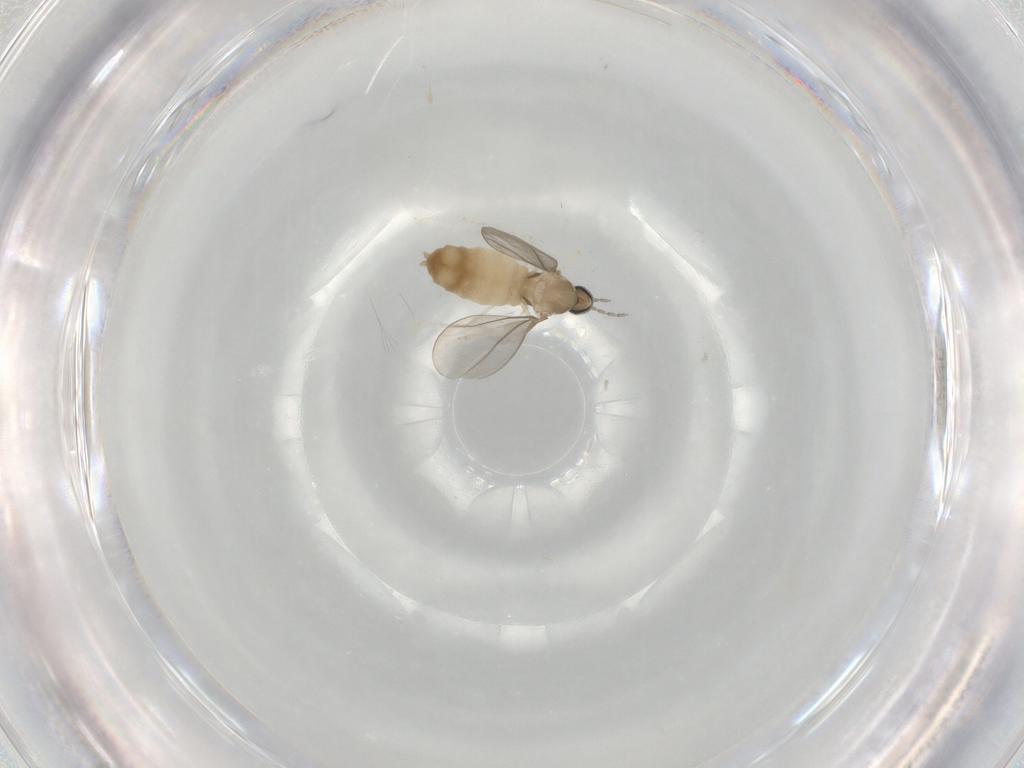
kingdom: Animalia
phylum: Arthropoda
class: Insecta
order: Diptera
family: Cecidomyiidae
